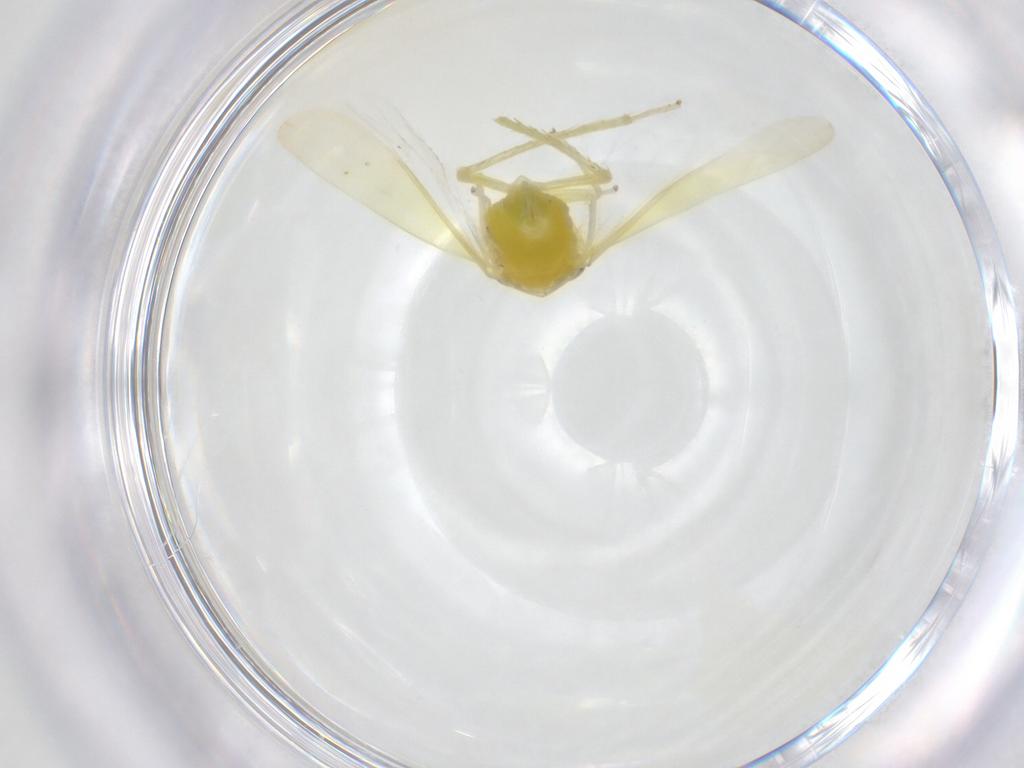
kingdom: Animalia
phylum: Arthropoda
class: Insecta
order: Hemiptera
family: Cicadellidae
